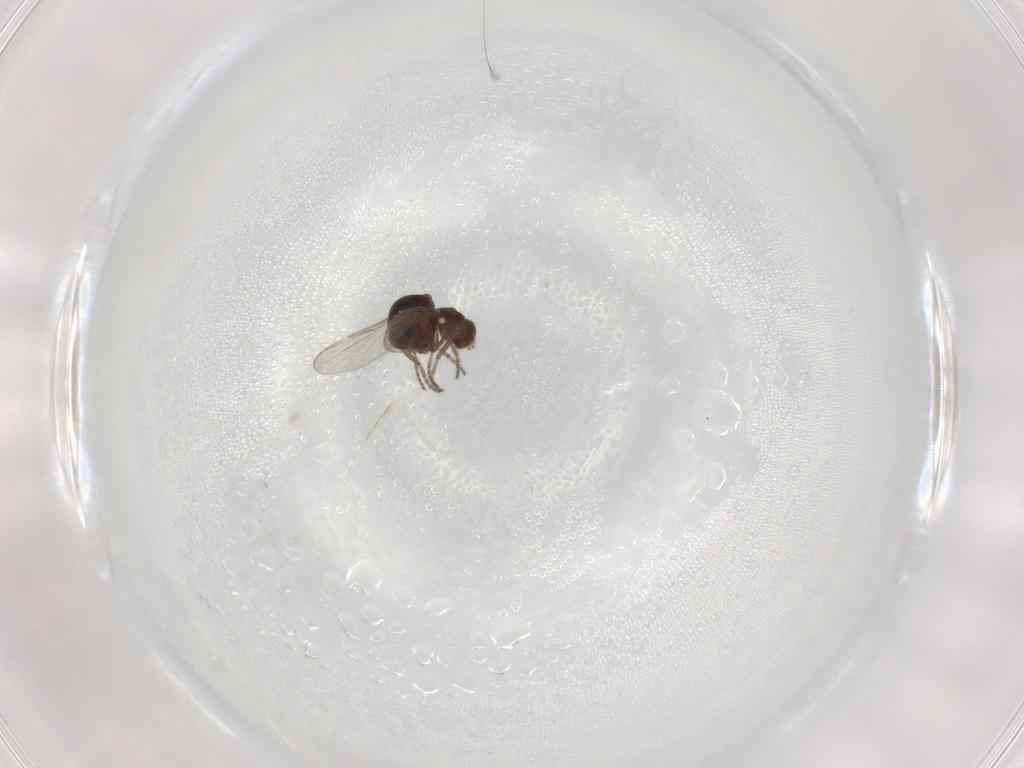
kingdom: Animalia
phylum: Arthropoda
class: Insecta
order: Diptera
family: Ceratopogonidae
